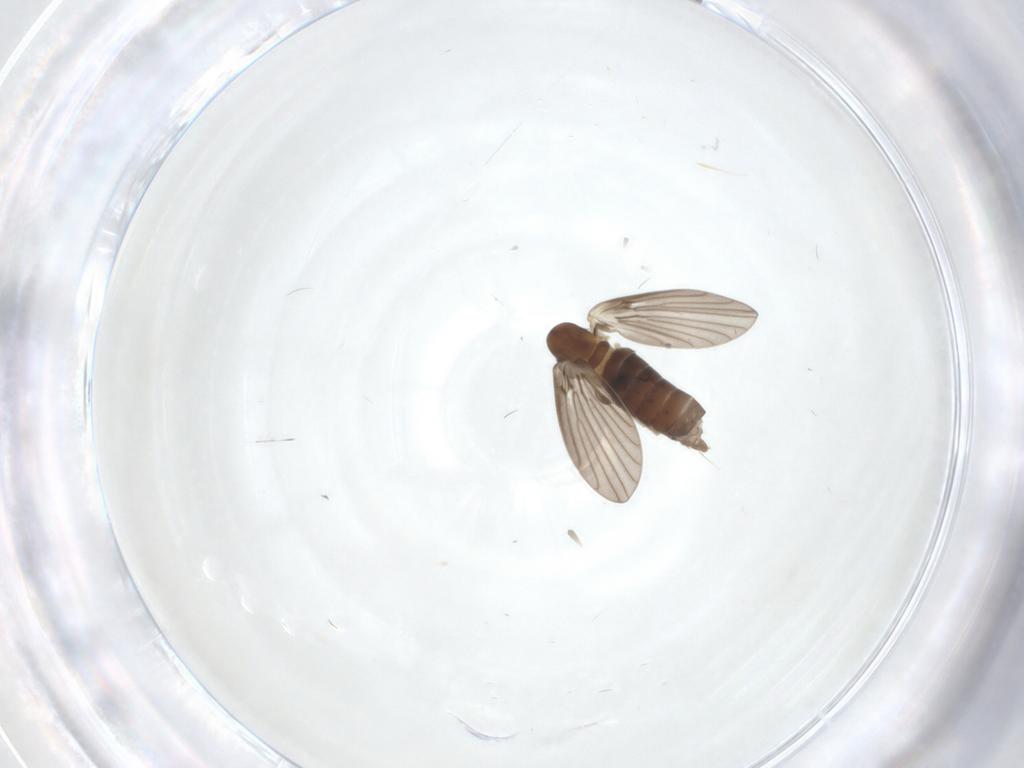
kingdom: Animalia
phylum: Arthropoda
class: Insecta
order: Diptera
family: Psychodidae
